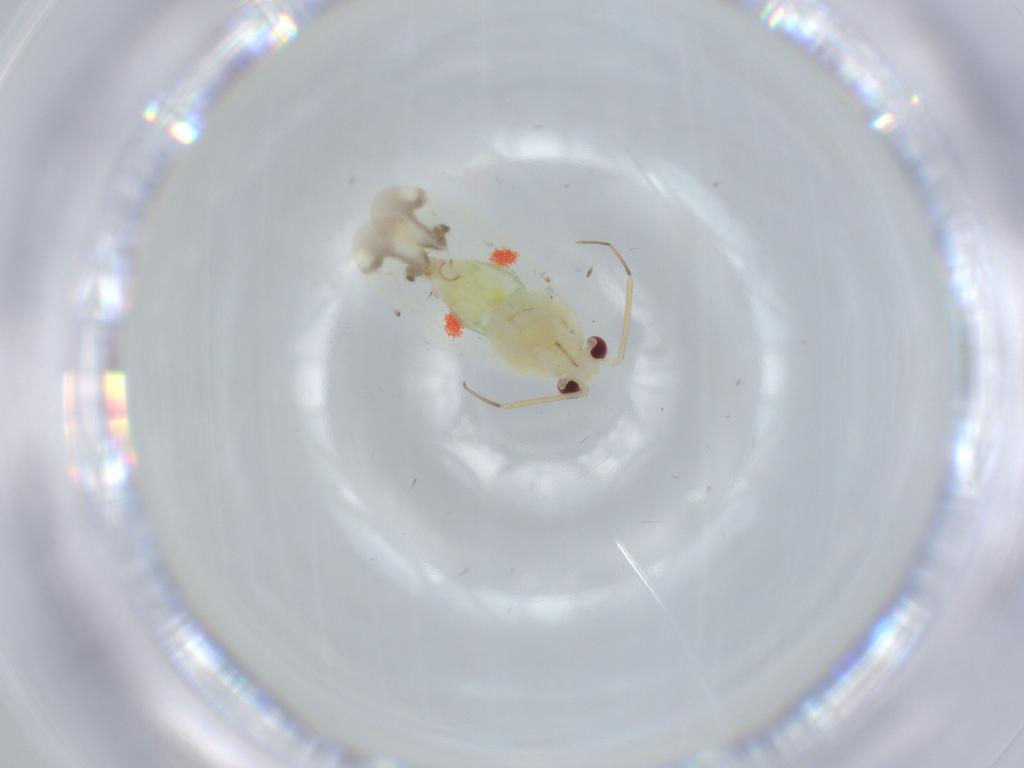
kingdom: Animalia
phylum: Arthropoda
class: Insecta
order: Hemiptera
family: Miridae
